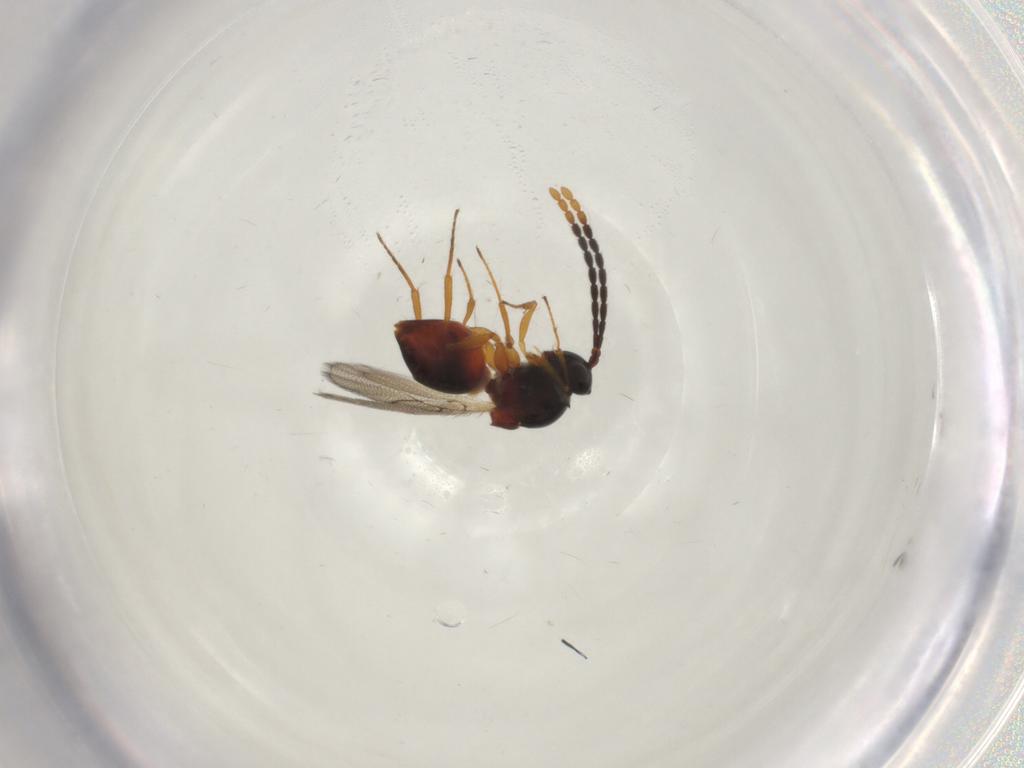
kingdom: Animalia
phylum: Arthropoda
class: Insecta
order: Hymenoptera
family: Figitidae
